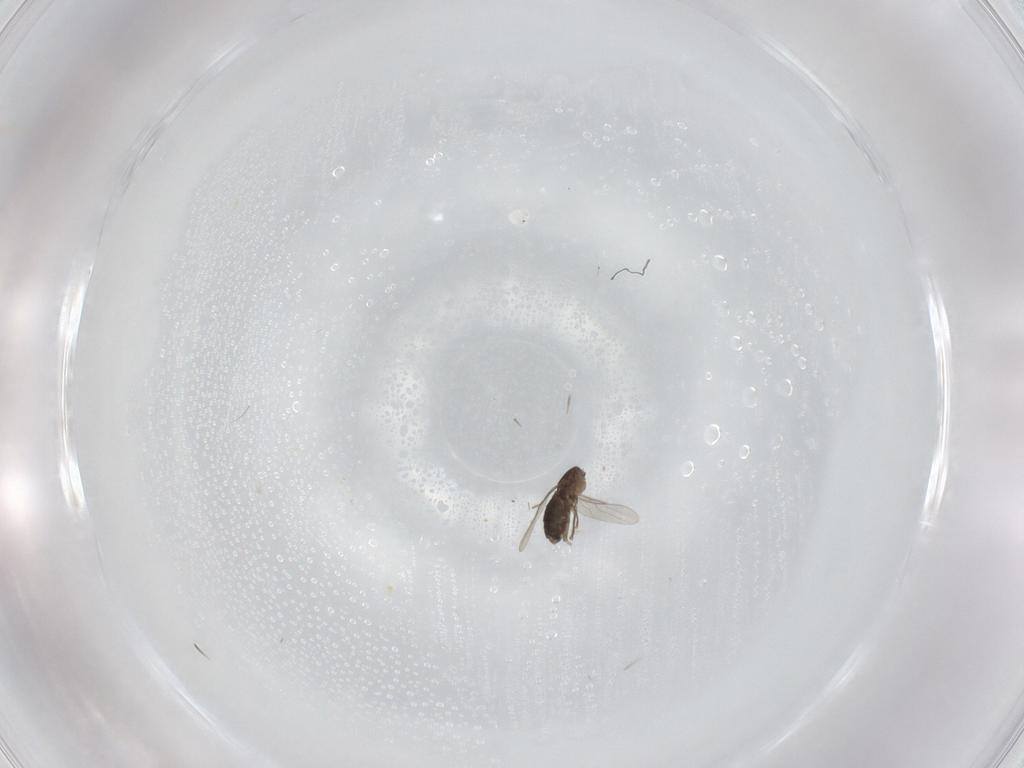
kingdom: Animalia
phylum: Arthropoda
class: Insecta
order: Diptera
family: Phoridae
